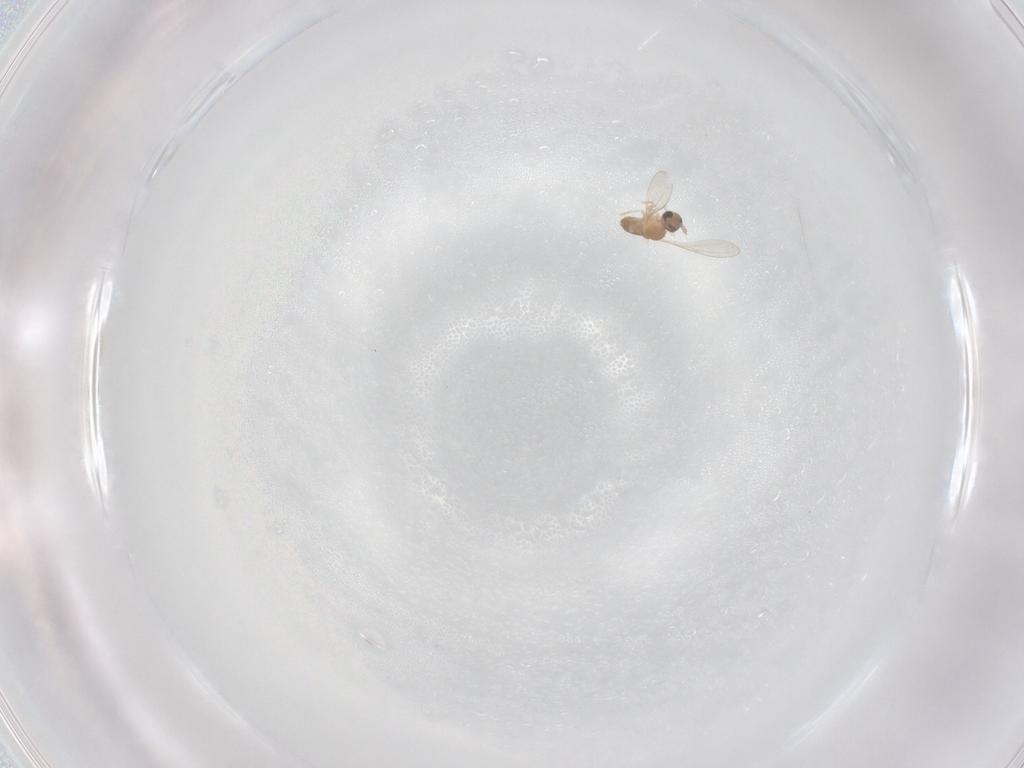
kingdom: Animalia
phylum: Arthropoda
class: Insecta
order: Diptera
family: Cecidomyiidae
